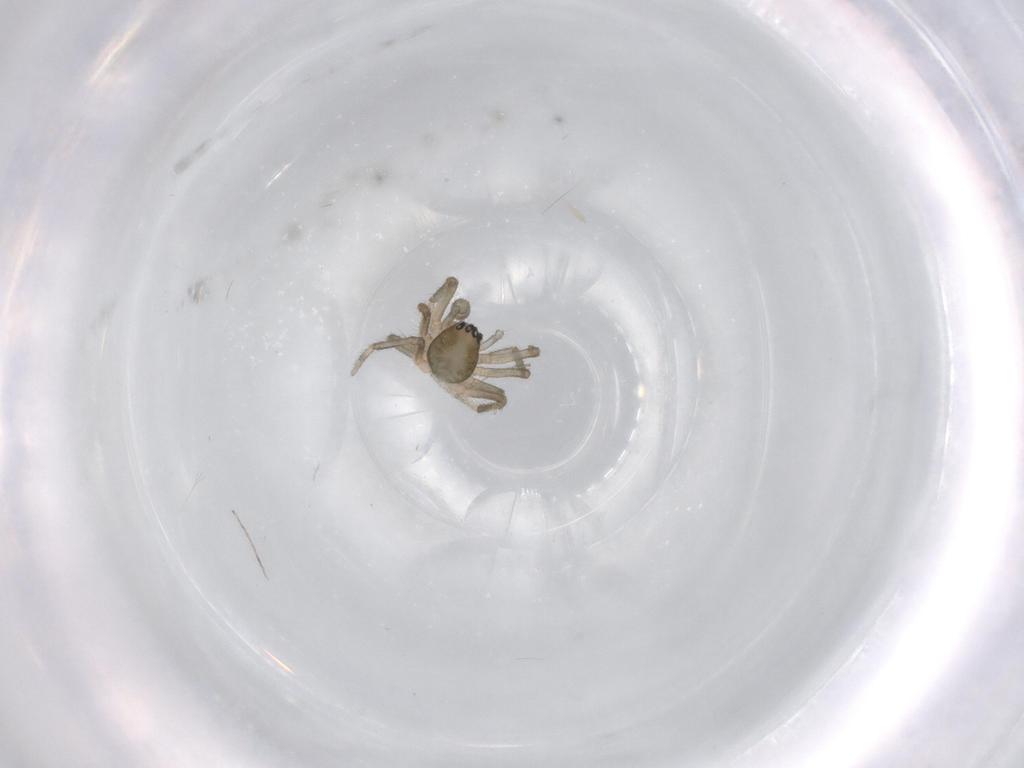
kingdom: Animalia
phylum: Arthropoda
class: Arachnida
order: Araneae
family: Linyphiidae
